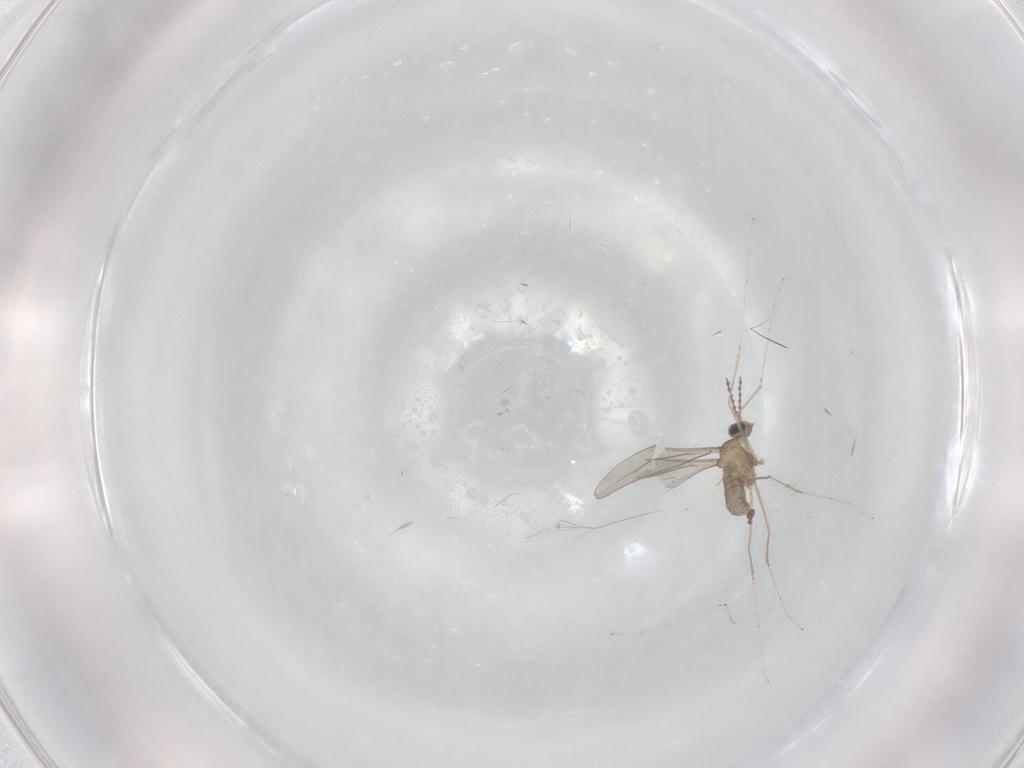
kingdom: Animalia
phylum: Arthropoda
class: Insecta
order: Diptera
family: Cecidomyiidae
